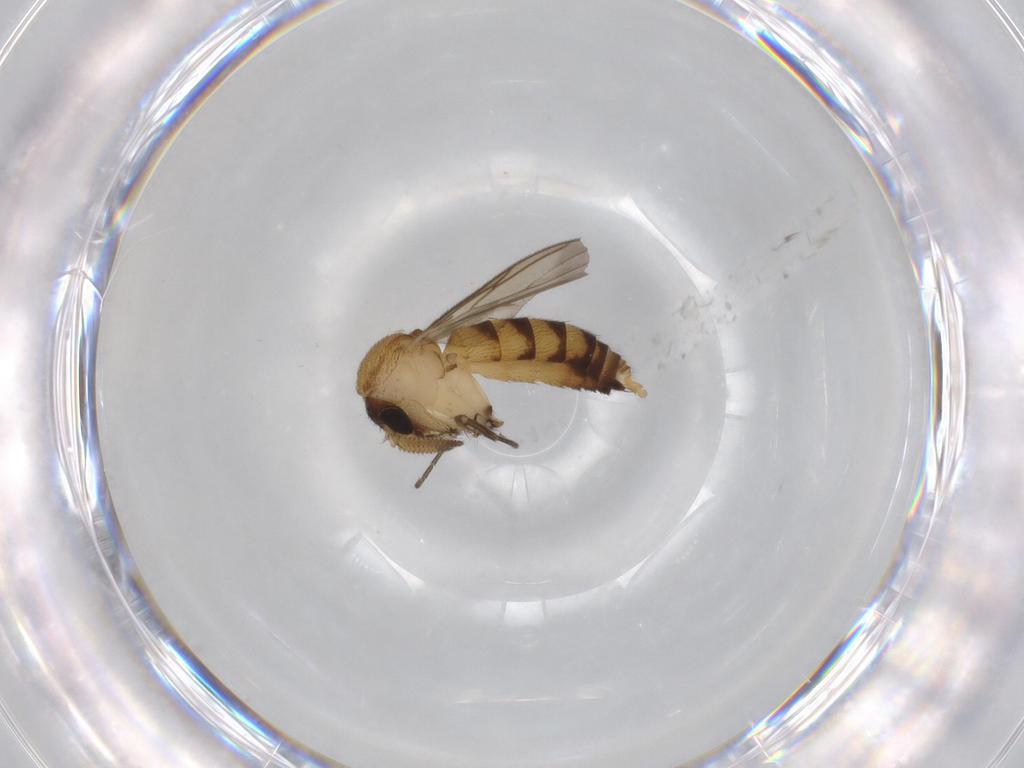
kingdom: Animalia
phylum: Arthropoda
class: Insecta
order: Diptera
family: Mycetophilidae
